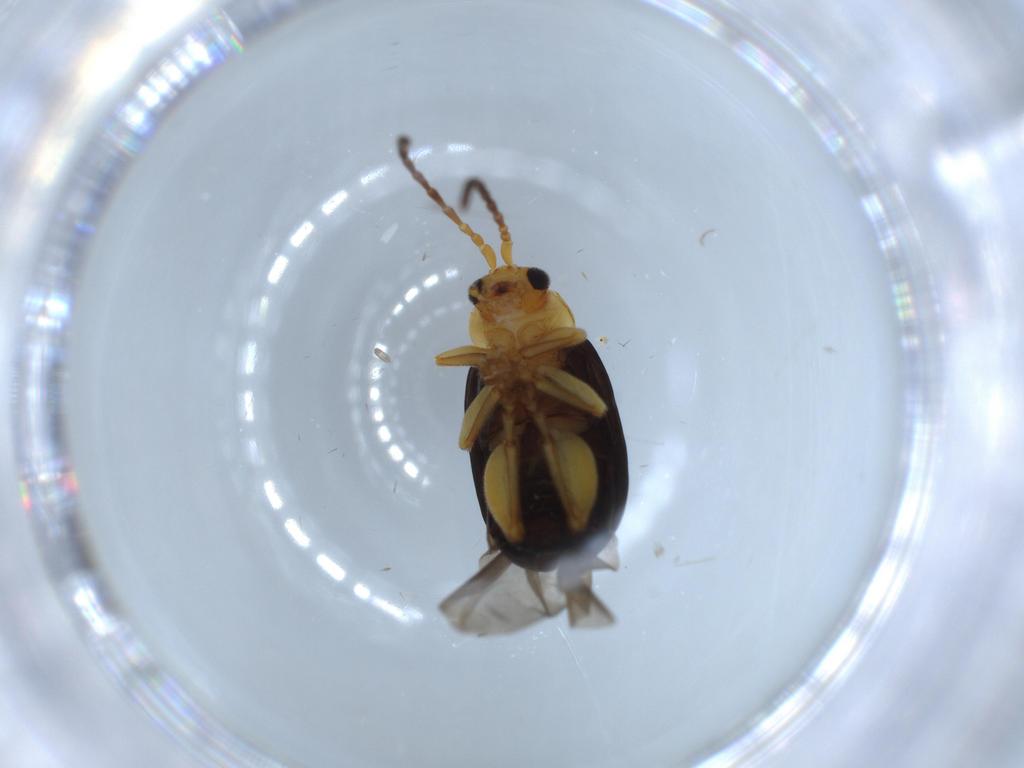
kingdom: Animalia
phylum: Arthropoda
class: Insecta
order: Coleoptera
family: Chrysomelidae
